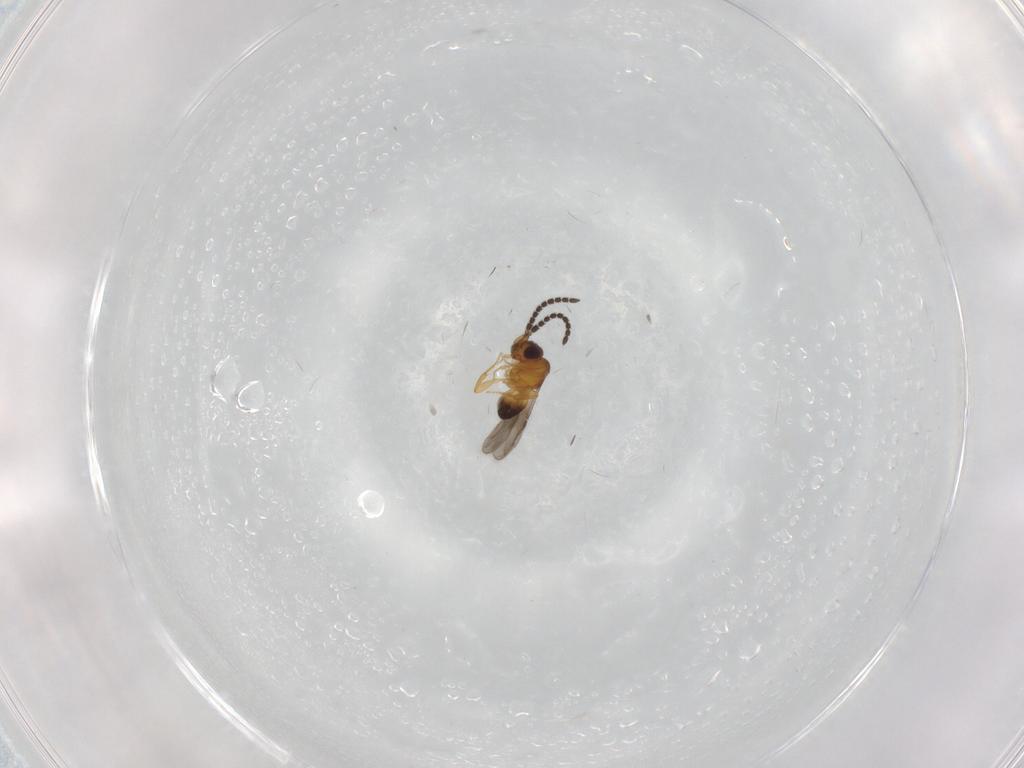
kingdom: Animalia
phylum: Arthropoda
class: Insecta
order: Hymenoptera
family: Ceraphronidae
